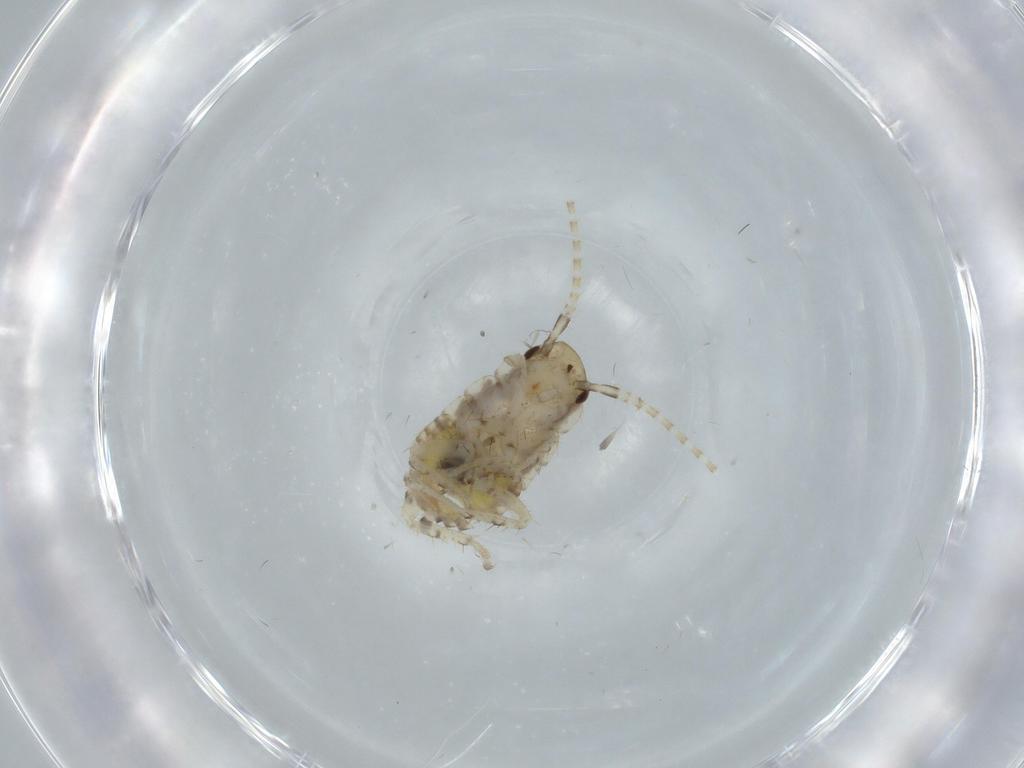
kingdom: Animalia
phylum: Arthropoda
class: Insecta
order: Blattodea
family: Ectobiidae
